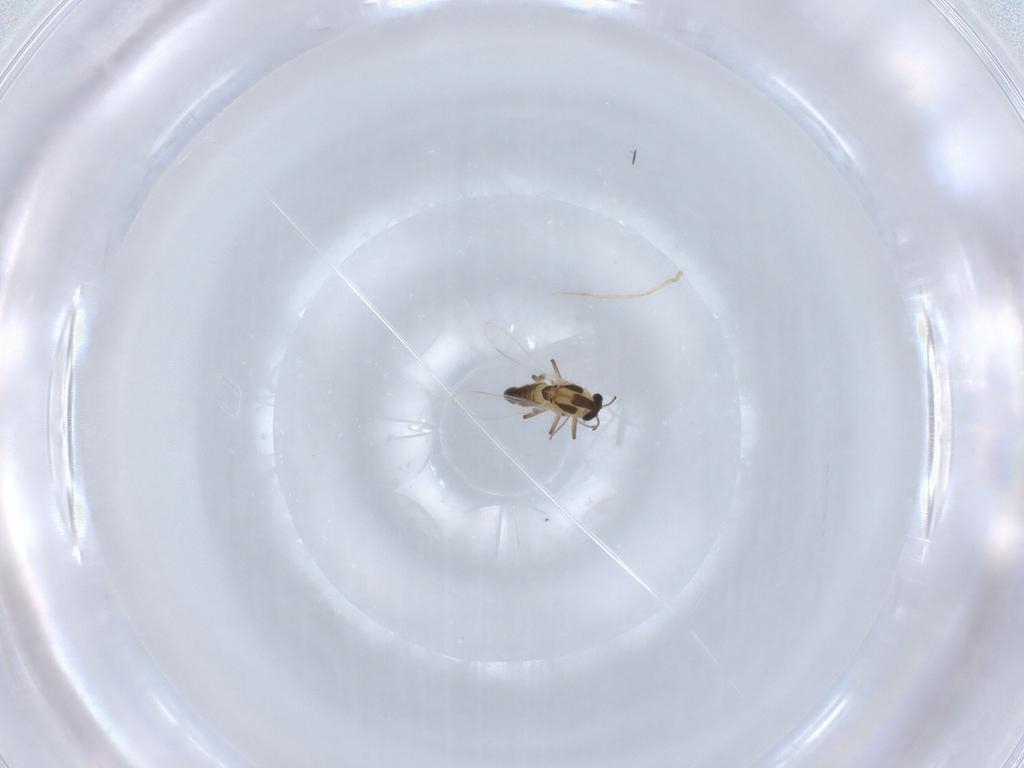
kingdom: Animalia
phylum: Arthropoda
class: Insecta
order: Diptera
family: Chironomidae
